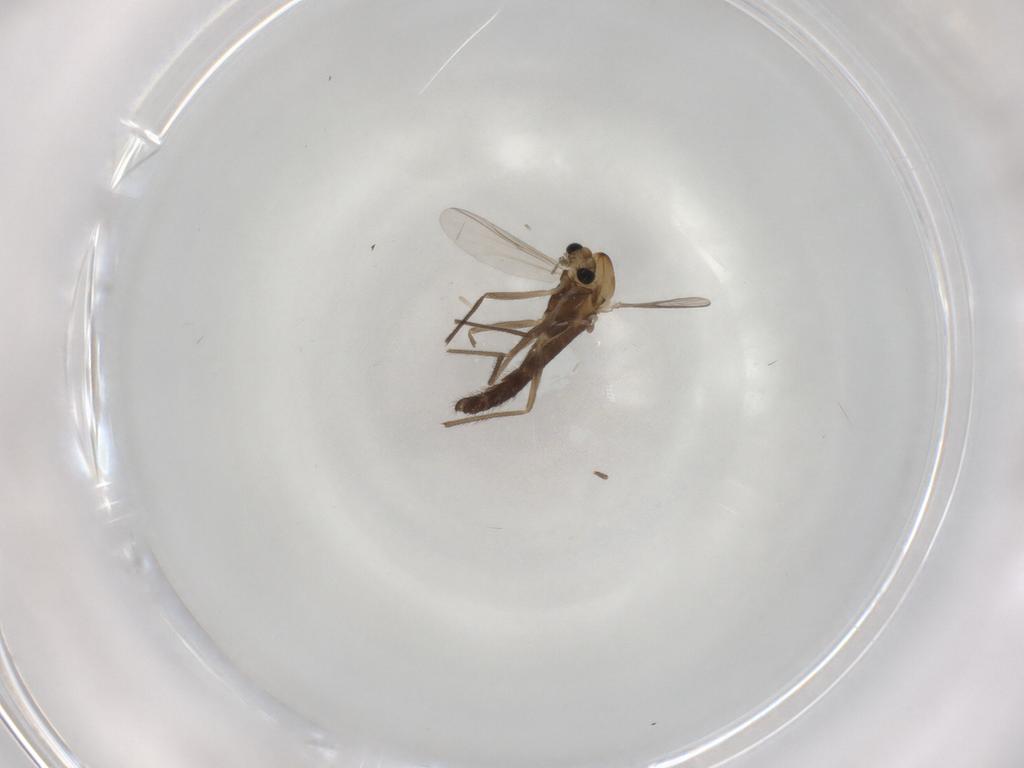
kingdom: Animalia
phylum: Arthropoda
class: Insecta
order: Diptera
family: Chironomidae
